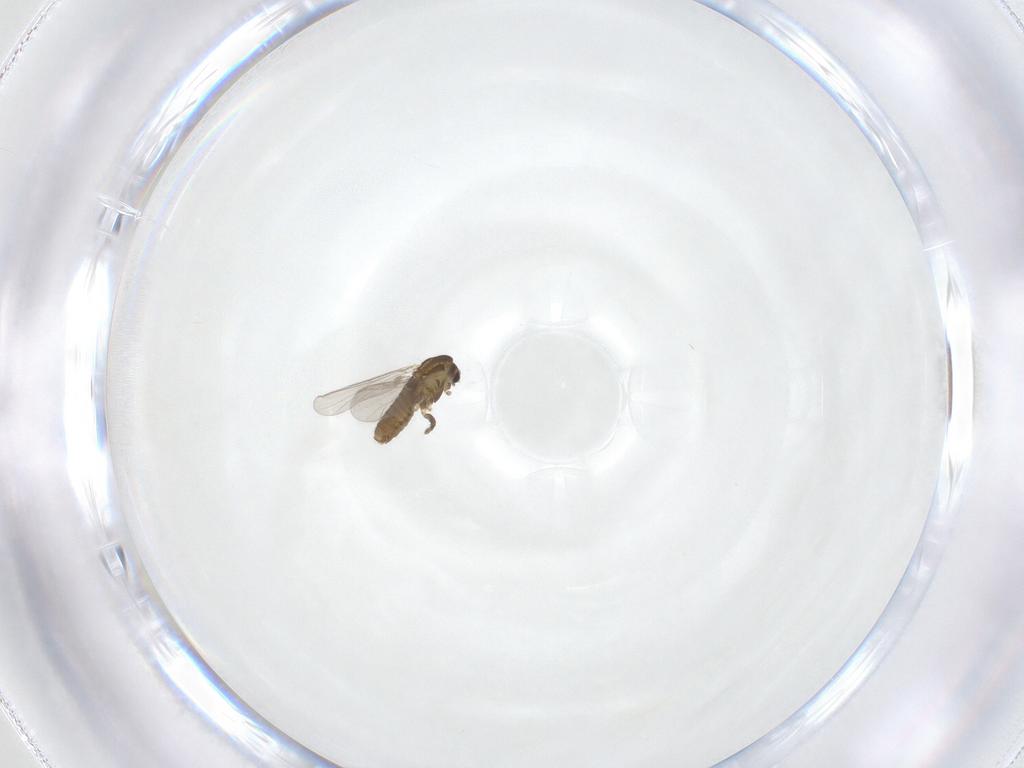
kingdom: Animalia
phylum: Arthropoda
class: Insecta
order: Diptera
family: Chironomidae
